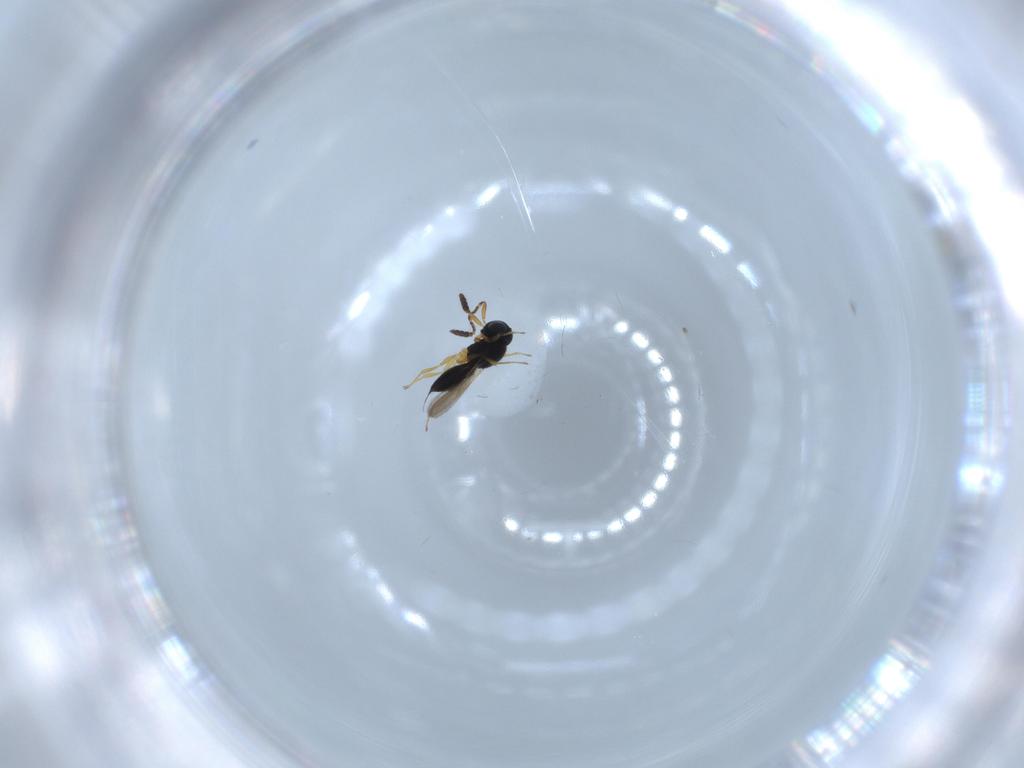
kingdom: Animalia
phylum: Arthropoda
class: Insecta
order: Hymenoptera
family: Scelionidae
